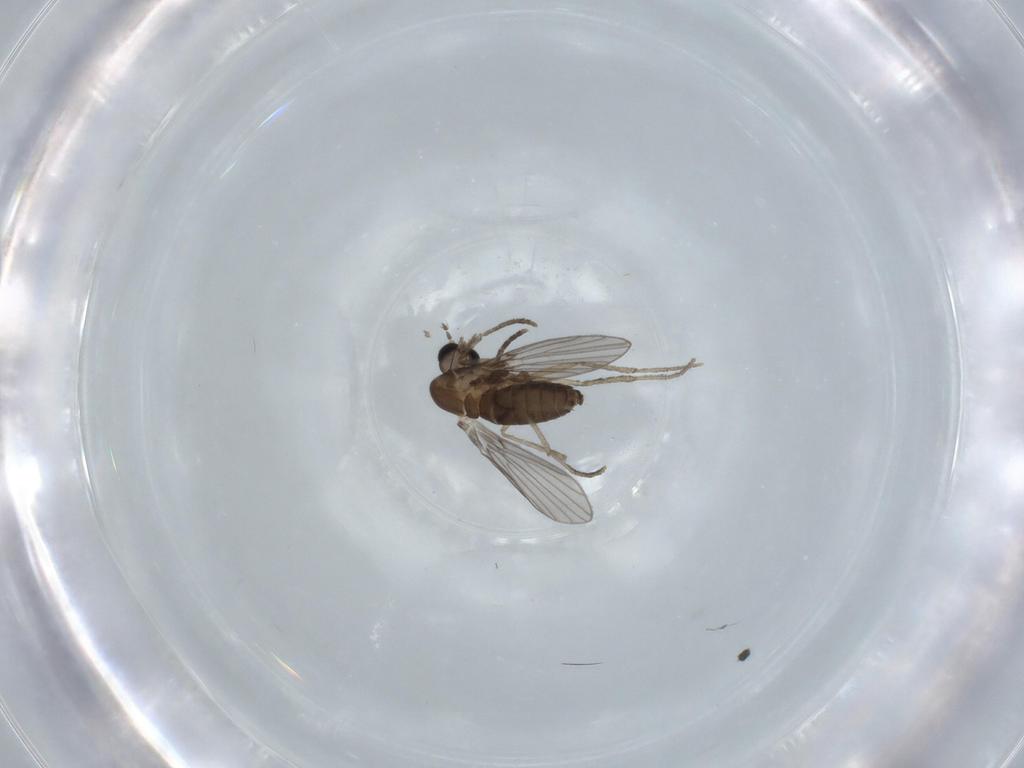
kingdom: Animalia
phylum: Arthropoda
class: Insecta
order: Diptera
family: Psychodidae
